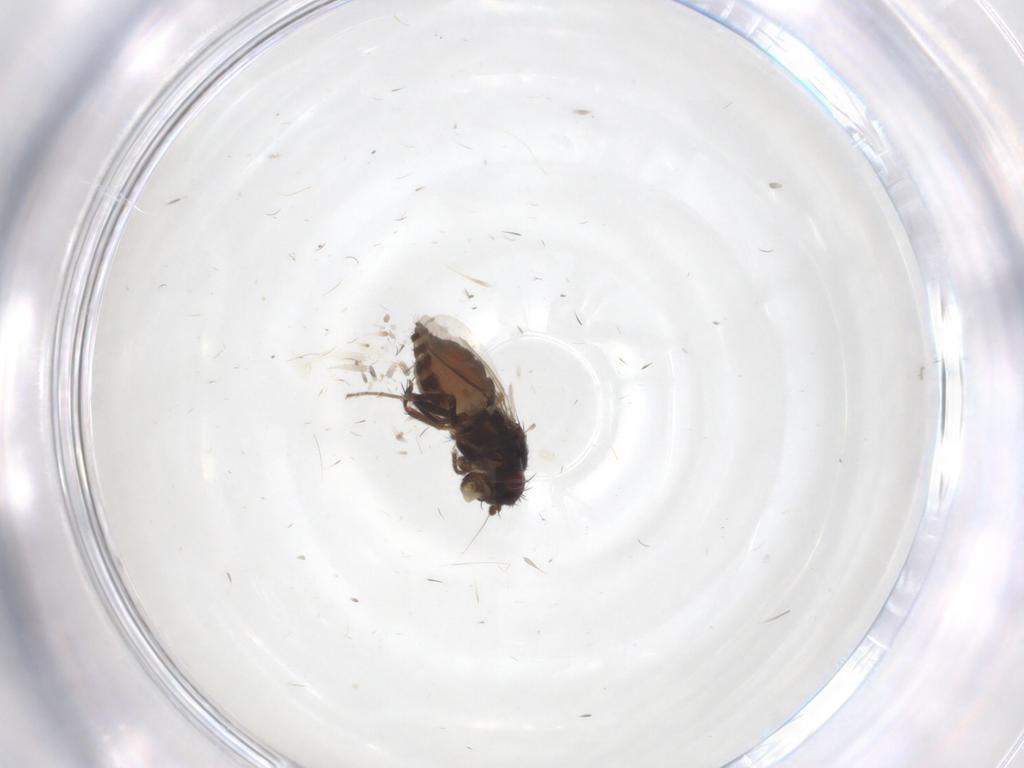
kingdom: Animalia
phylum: Arthropoda
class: Insecta
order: Diptera
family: Sphaeroceridae
